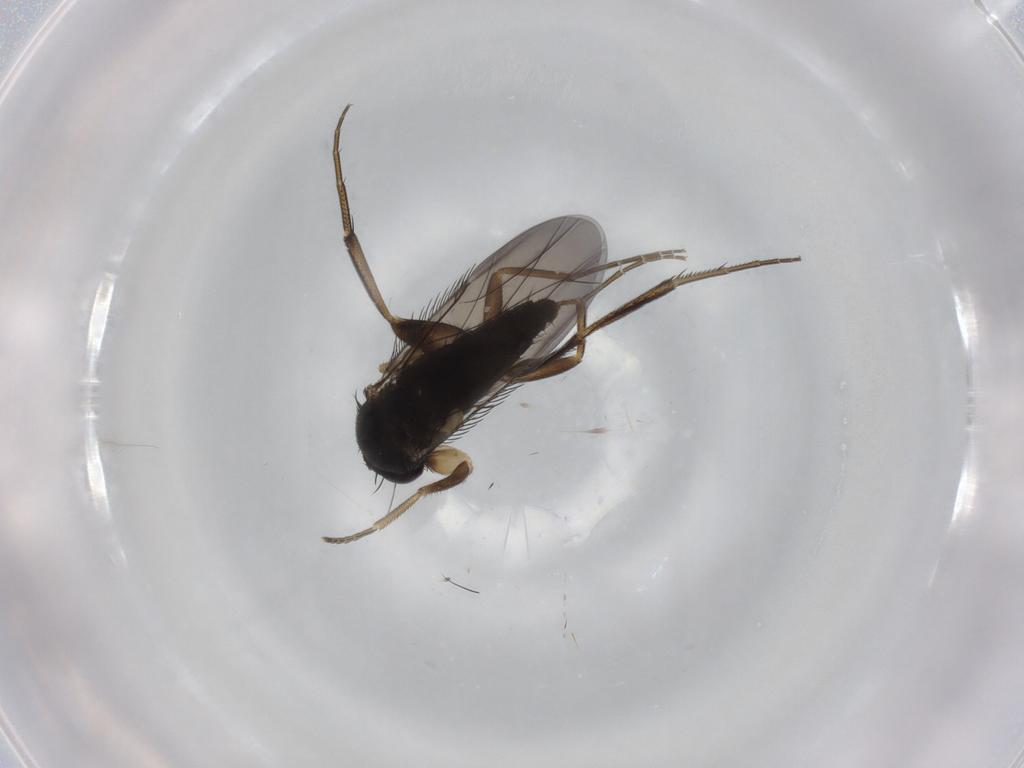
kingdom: Animalia
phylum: Arthropoda
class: Insecta
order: Diptera
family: Phoridae
